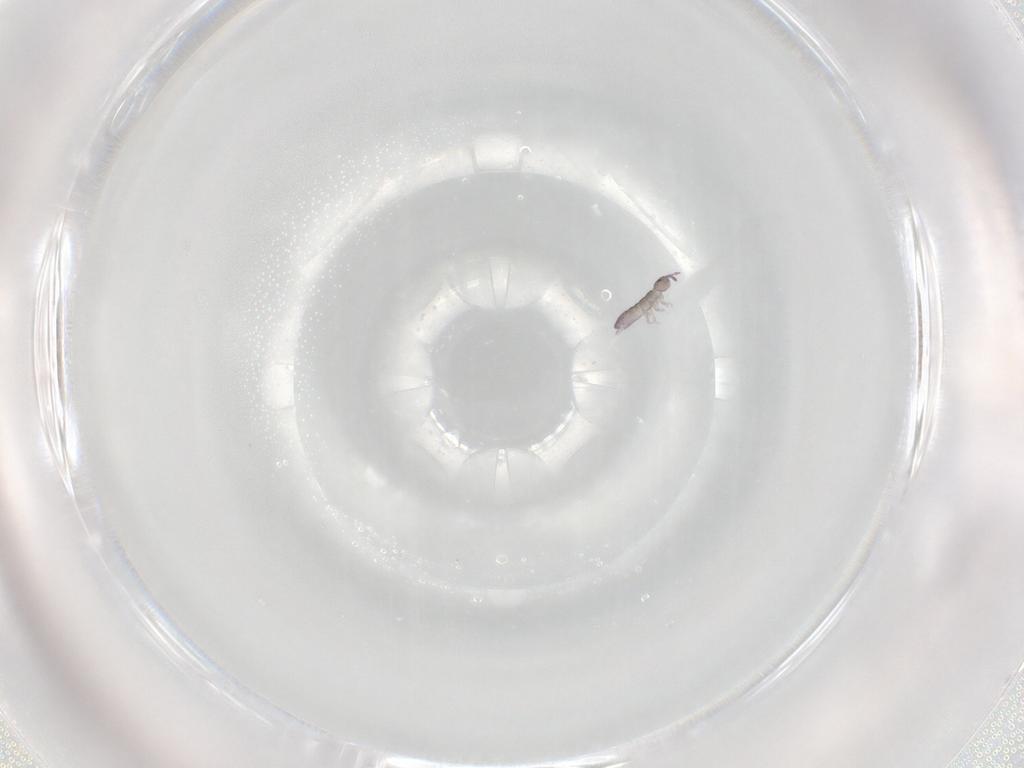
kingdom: Animalia
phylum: Arthropoda
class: Collembola
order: Entomobryomorpha
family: Isotomidae
